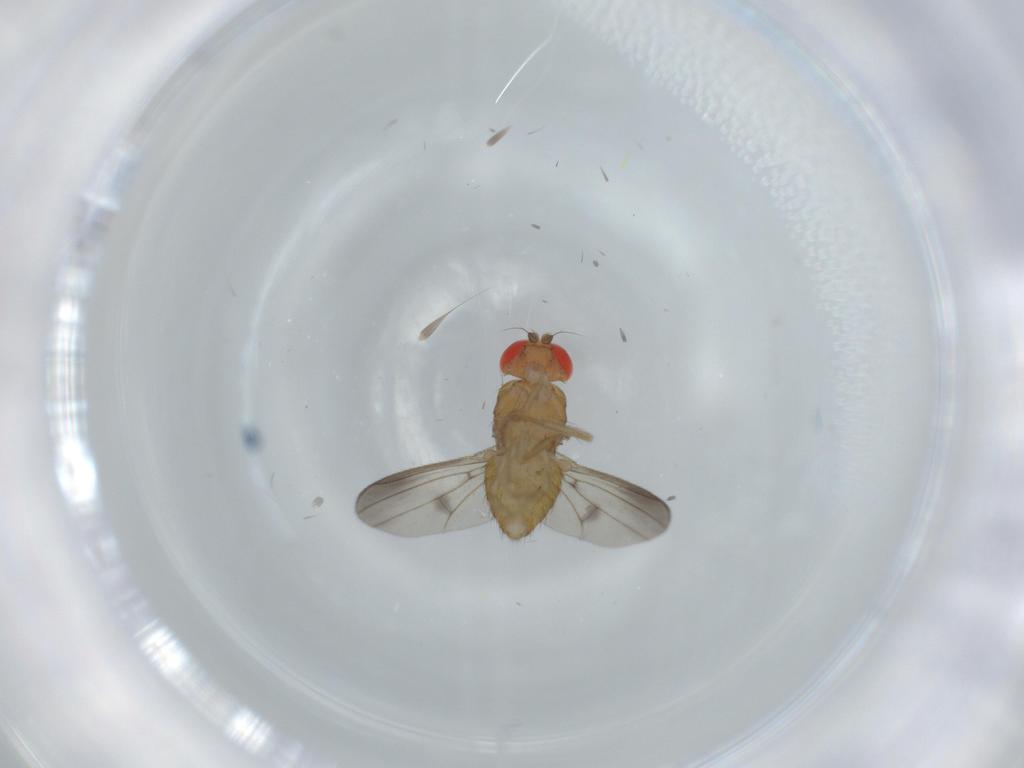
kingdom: Animalia
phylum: Arthropoda
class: Insecta
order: Diptera
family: Drosophilidae
